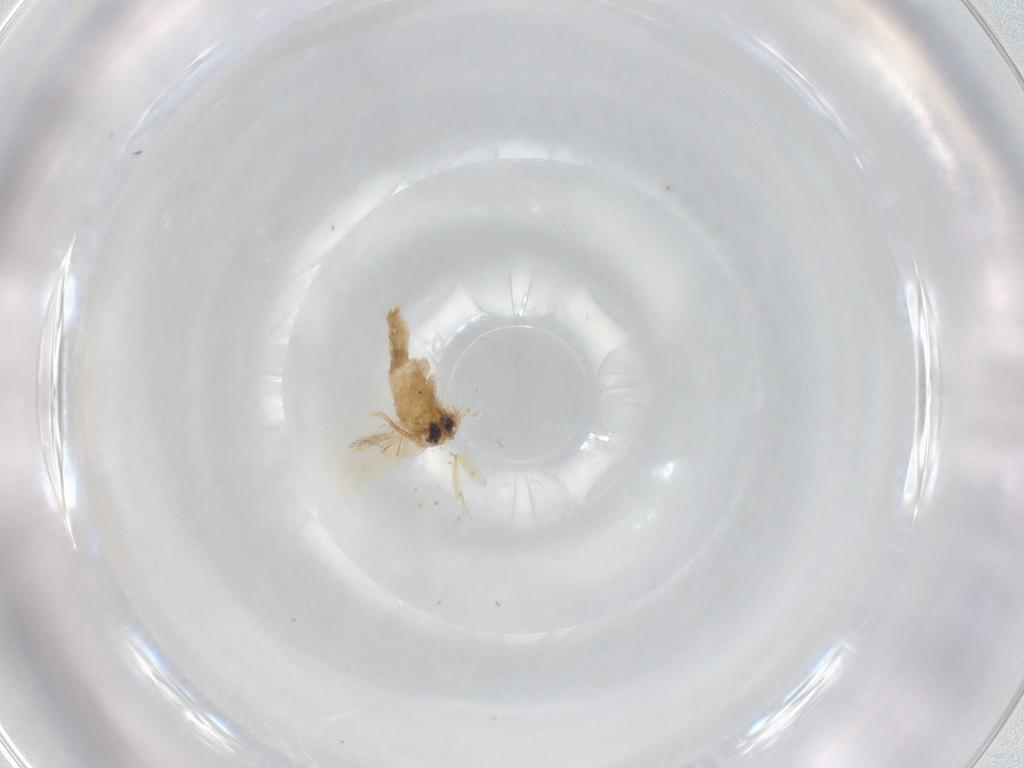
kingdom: Animalia
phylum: Arthropoda
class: Insecta
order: Lepidoptera
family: Opostegidae
